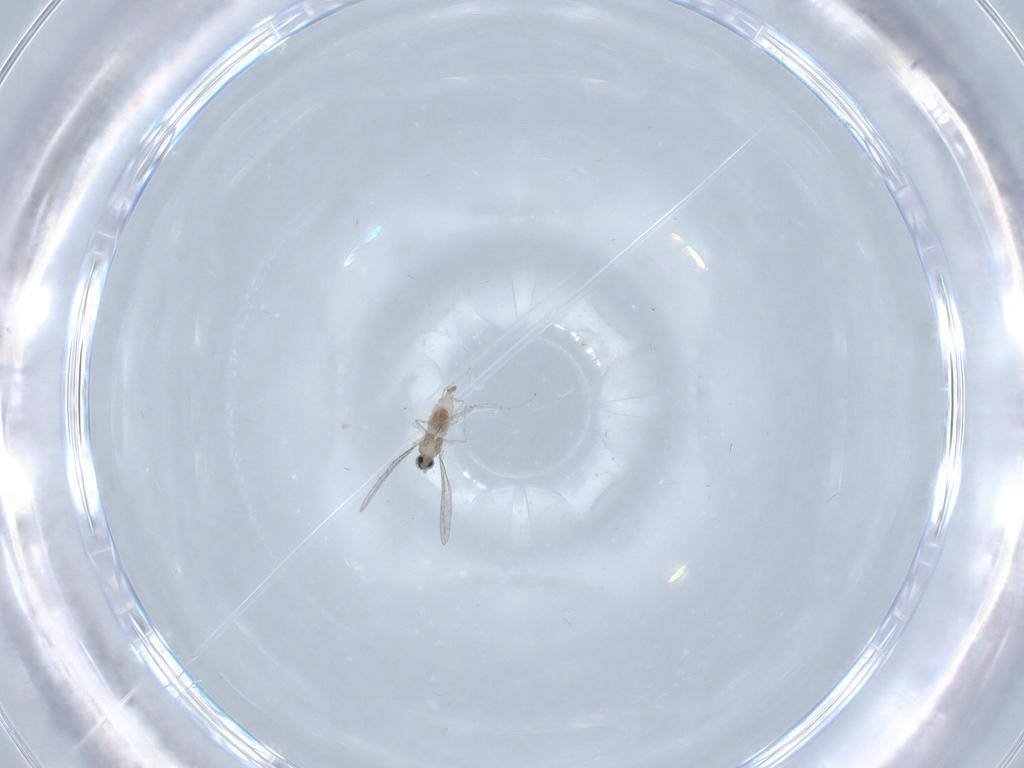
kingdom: Animalia
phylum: Arthropoda
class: Insecta
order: Diptera
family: Cecidomyiidae
